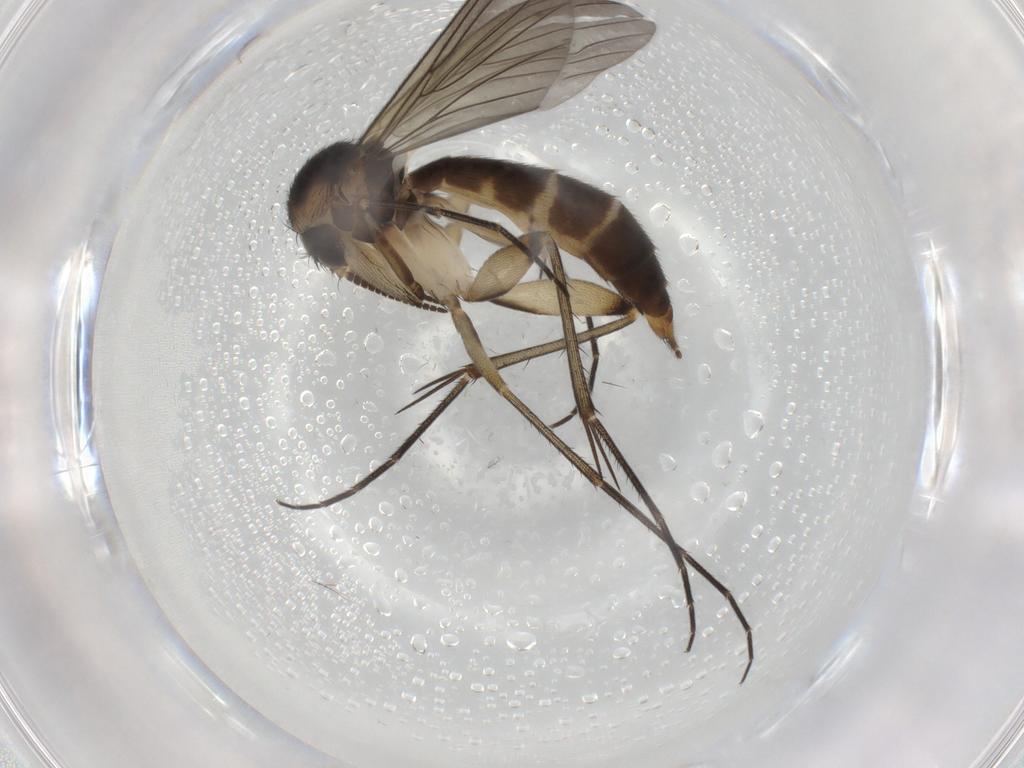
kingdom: Animalia
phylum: Arthropoda
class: Insecta
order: Diptera
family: Mycetophilidae
